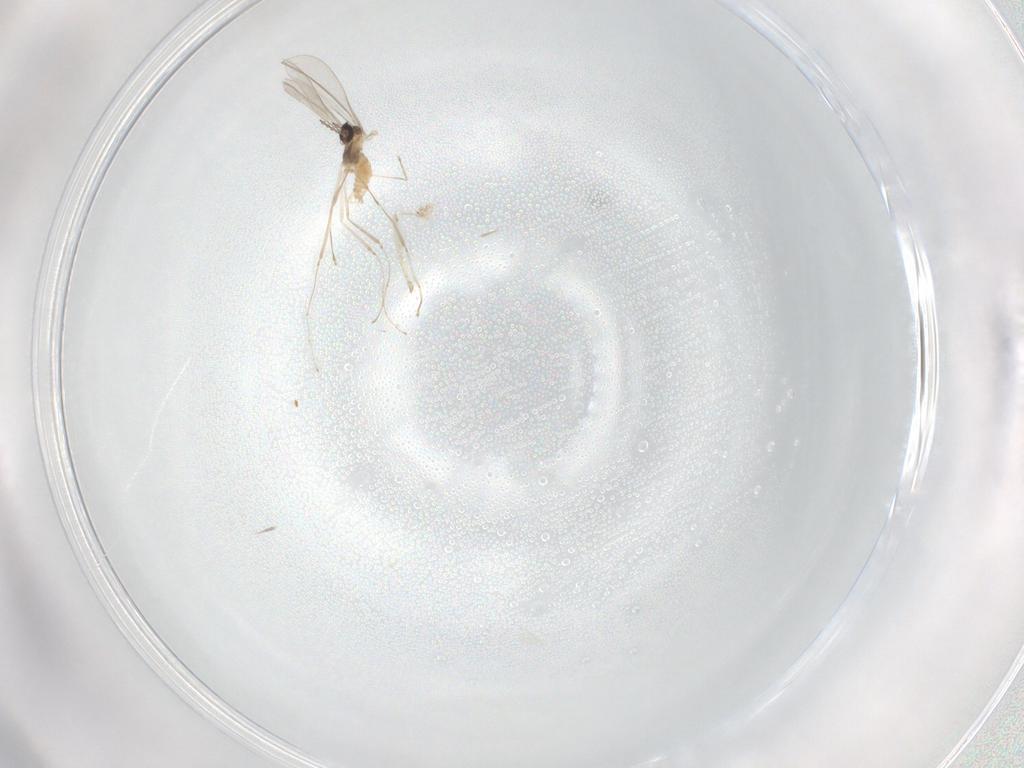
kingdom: Animalia
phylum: Arthropoda
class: Insecta
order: Diptera
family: Cecidomyiidae
